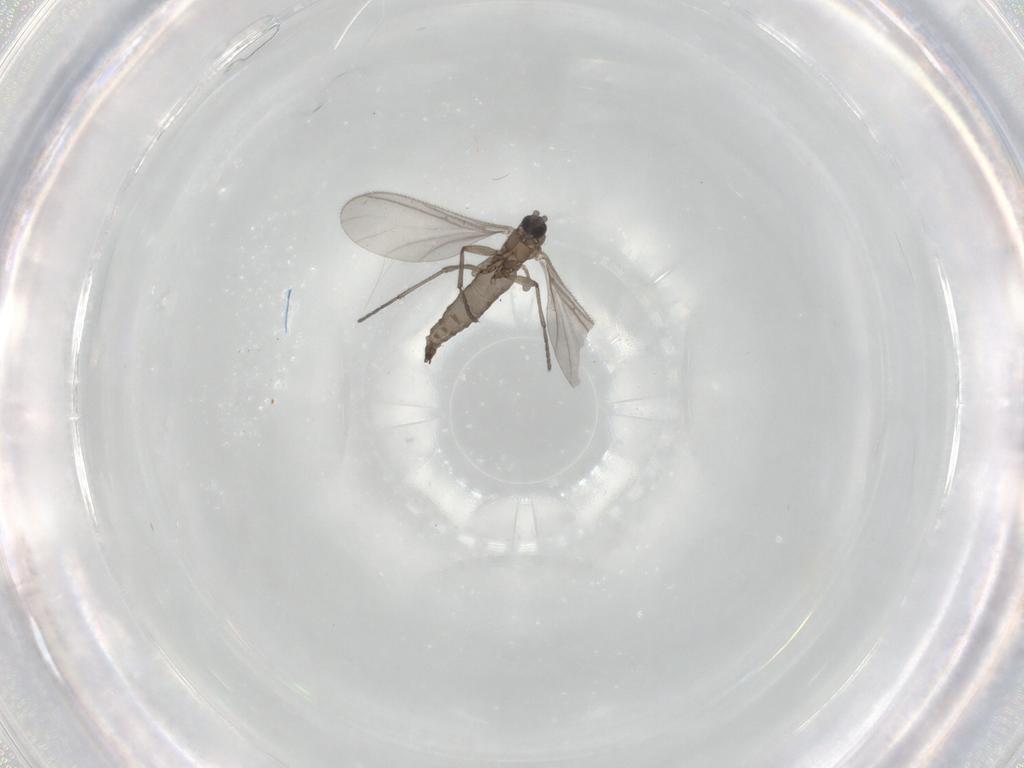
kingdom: Animalia
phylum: Arthropoda
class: Insecta
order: Diptera
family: Sciaridae
